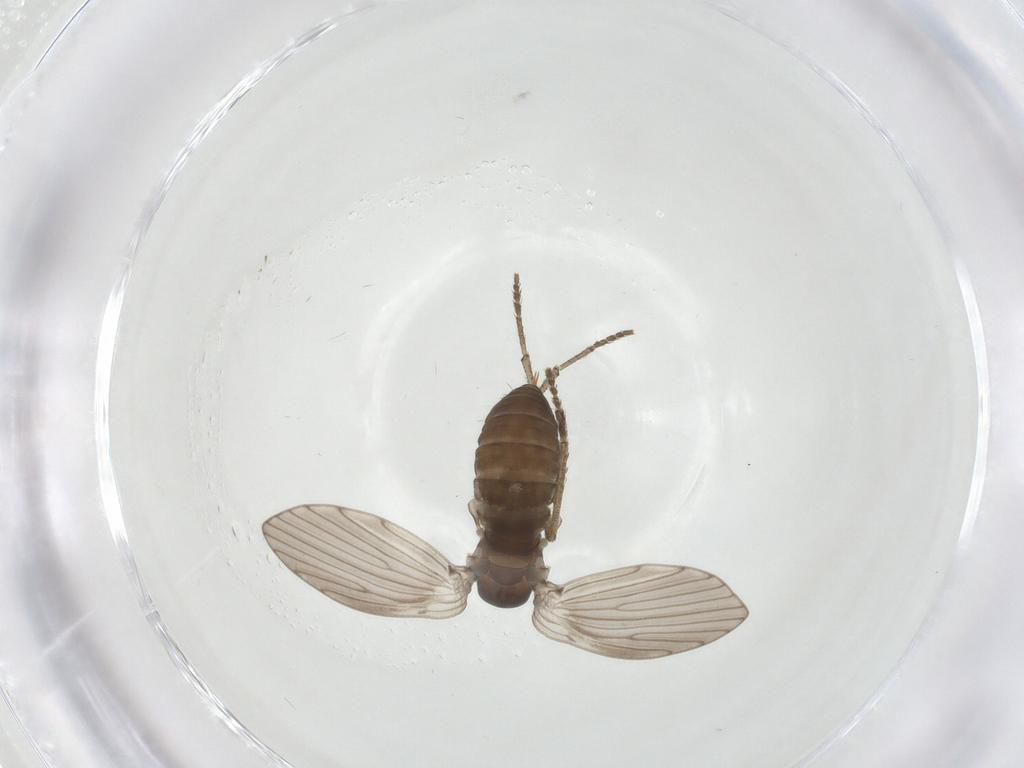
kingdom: Animalia
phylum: Arthropoda
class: Insecta
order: Diptera
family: Psychodidae
